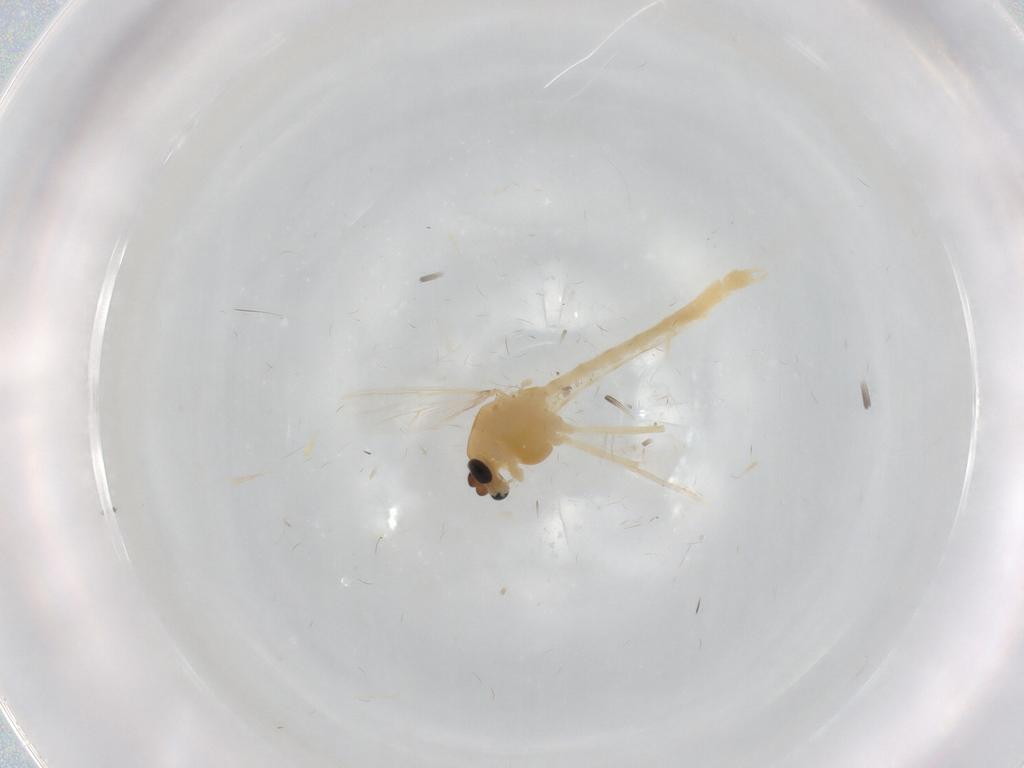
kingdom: Animalia
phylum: Arthropoda
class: Insecta
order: Diptera
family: Chironomidae
